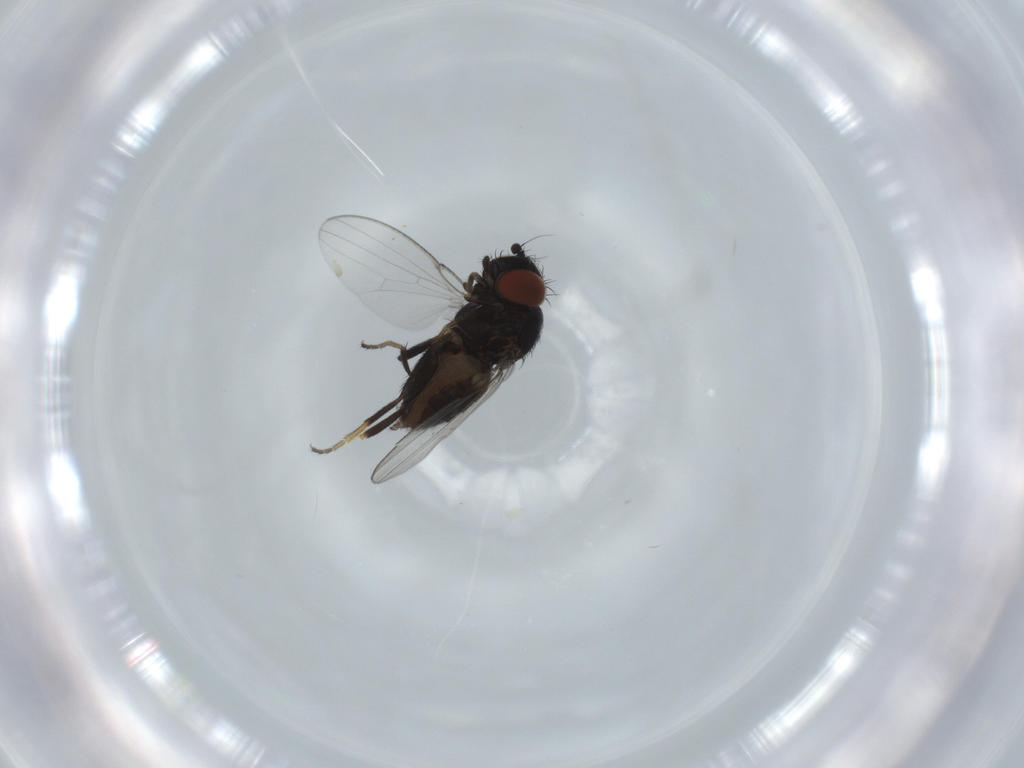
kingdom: Animalia
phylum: Arthropoda
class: Insecta
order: Diptera
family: Milichiidae
